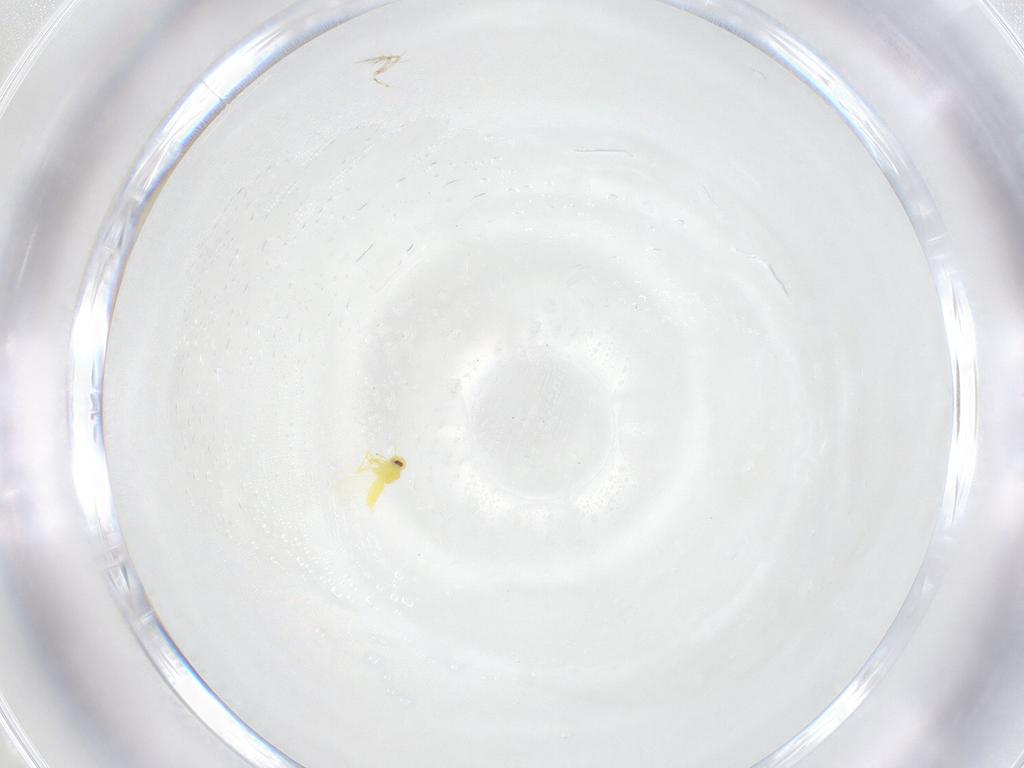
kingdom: Animalia
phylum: Arthropoda
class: Insecta
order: Hemiptera
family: Aleyrodidae
